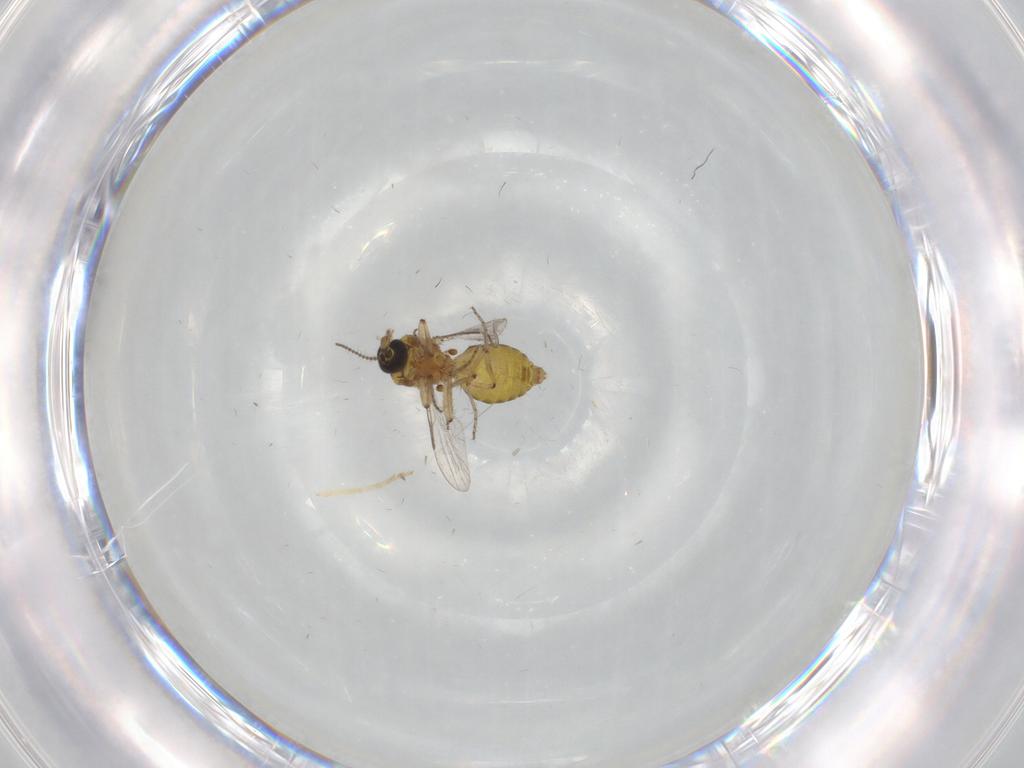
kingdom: Animalia
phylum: Arthropoda
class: Insecta
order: Diptera
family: Ceratopogonidae
